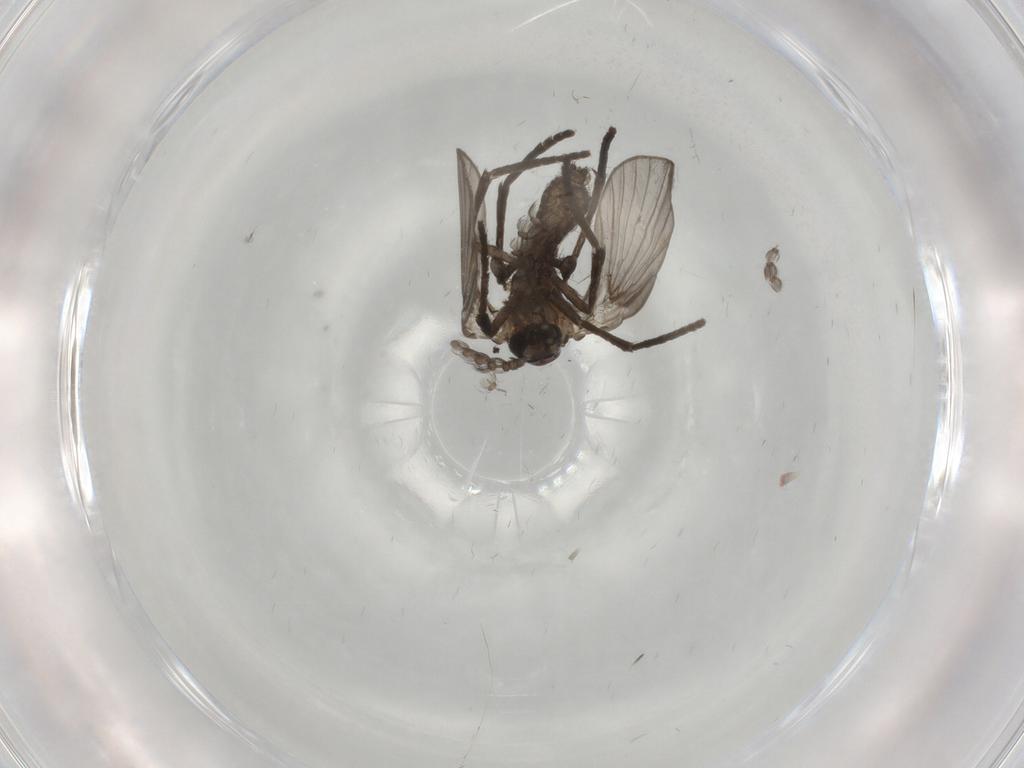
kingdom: Animalia
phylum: Arthropoda
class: Insecta
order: Diptera
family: Psychodidae
